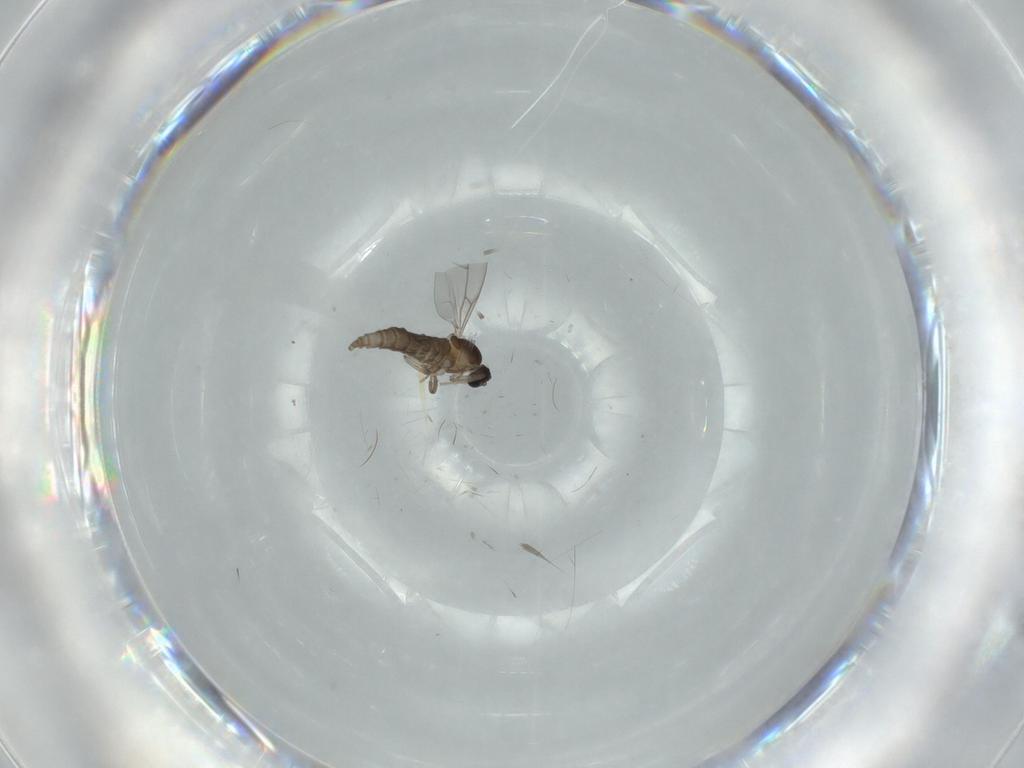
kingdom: Animalia
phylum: Arthropoda
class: Insecta
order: Diptera
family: Cecidomyiidae
